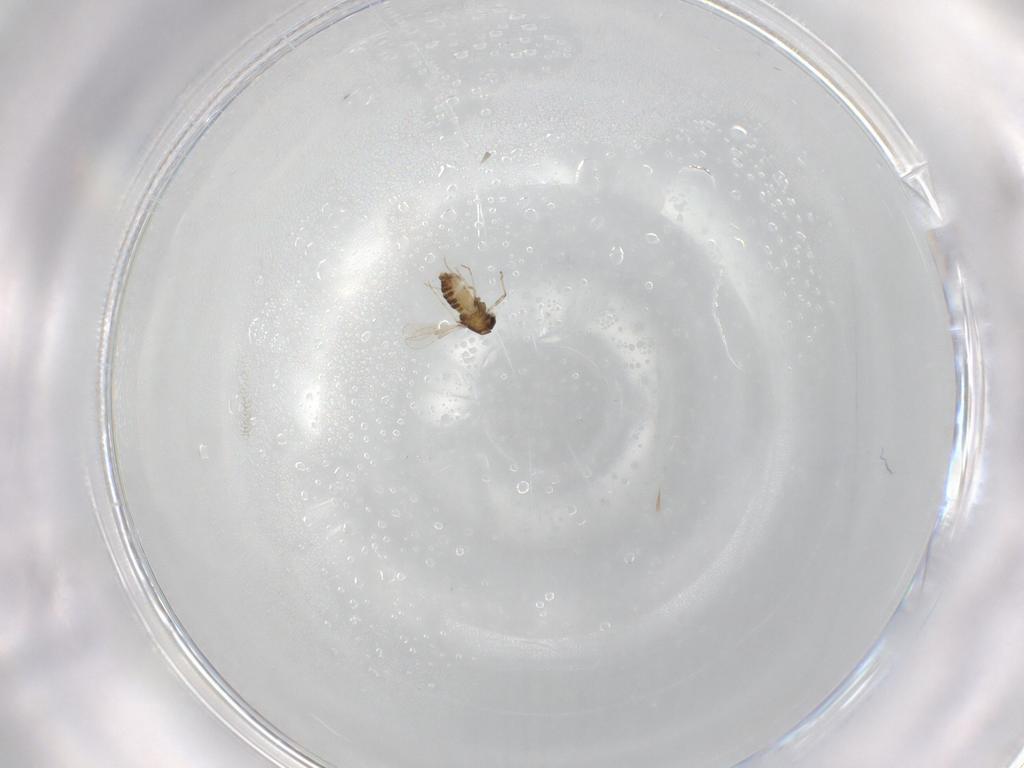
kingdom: Animalia
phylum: Arthropoda
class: Insecta
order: Diptera
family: Chironomidae
